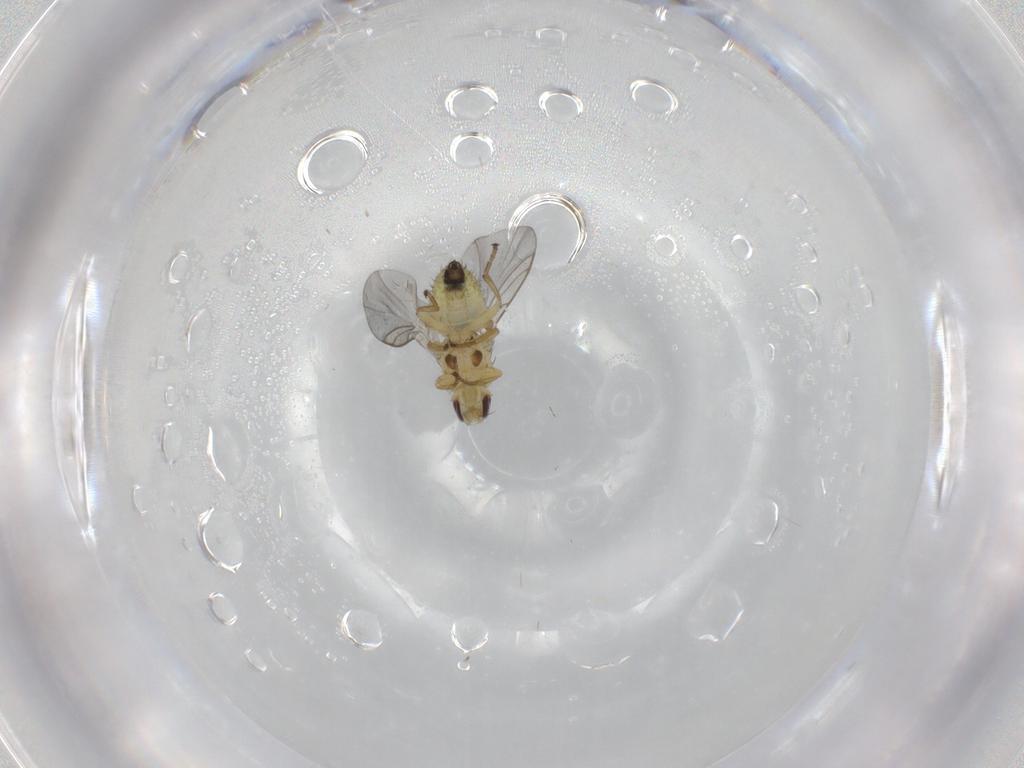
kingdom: Animalia
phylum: Arthropoda
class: Insecta
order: Diptera
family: Agromyzidae
